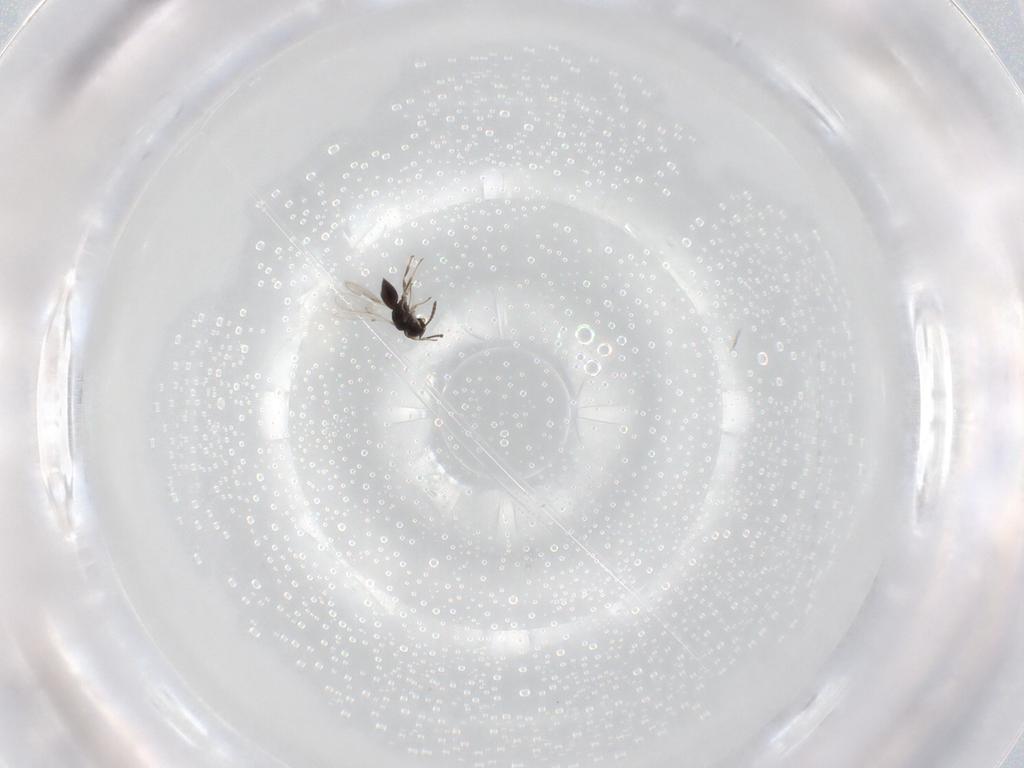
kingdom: Animalia
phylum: Arthropoda
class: Insecta
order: Hymenoptera
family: Scelionidae
